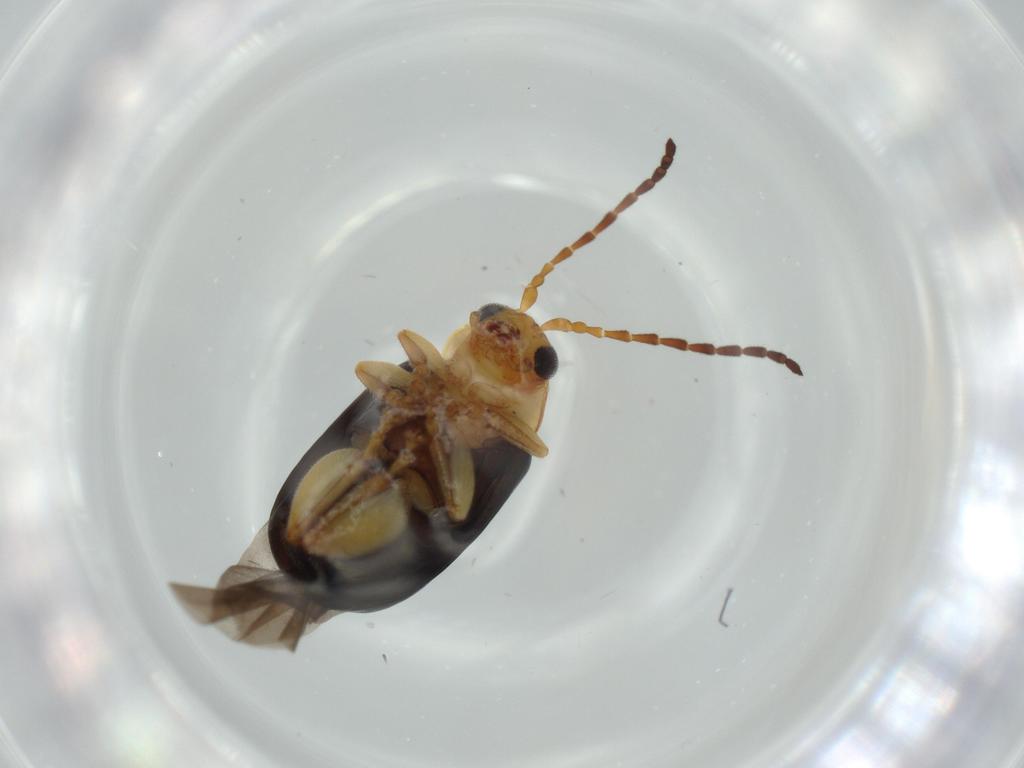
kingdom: Animalia
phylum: Arthropoda
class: Insecta
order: Coleoptera
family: Chrysomelidae
